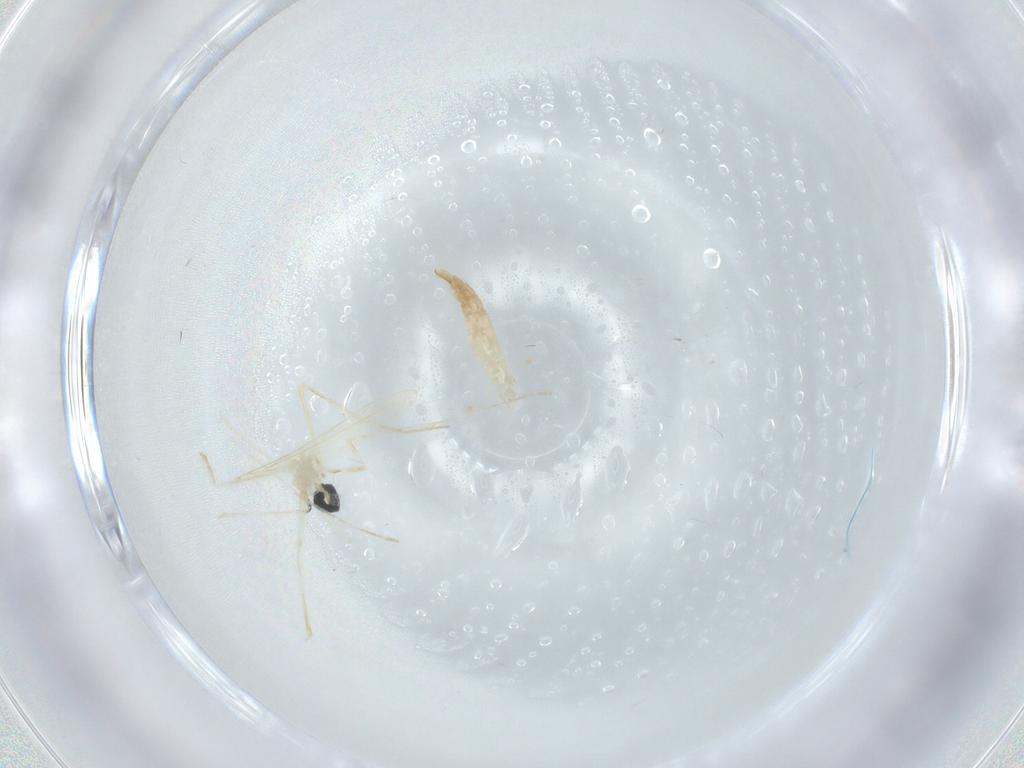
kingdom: Animalia
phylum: Arthropoda
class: Insecta
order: Diptera
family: Cecidomyiidae
